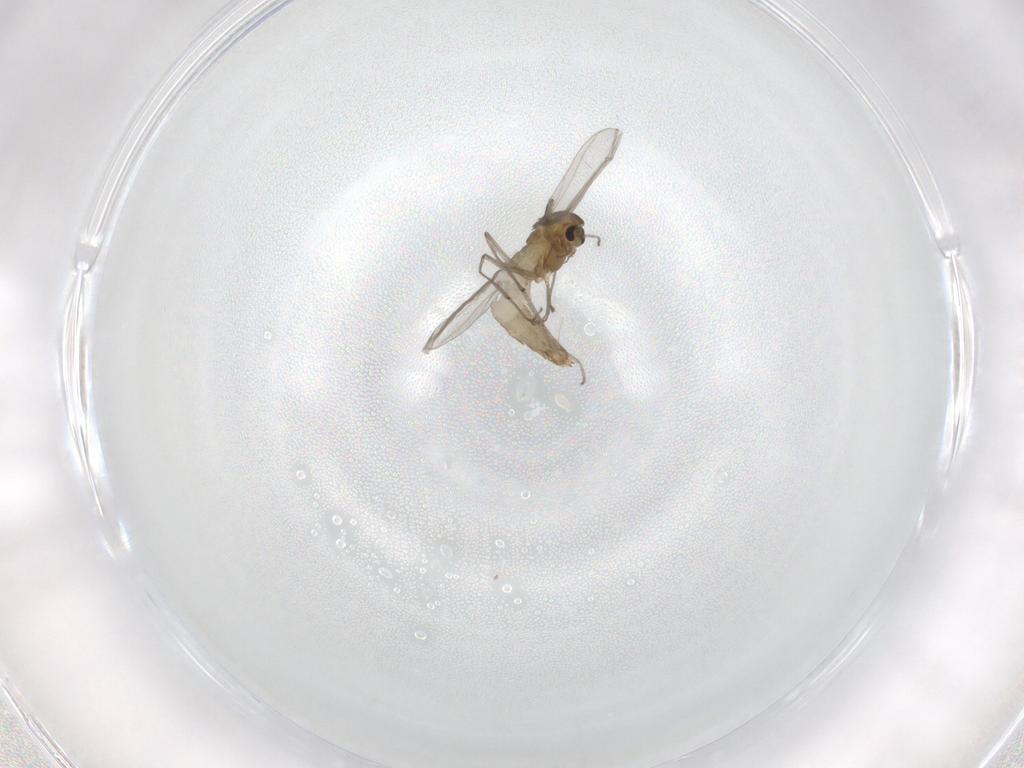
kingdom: Animalia
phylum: Arthropoda
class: Insecta
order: Diptera
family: Chironomidae
